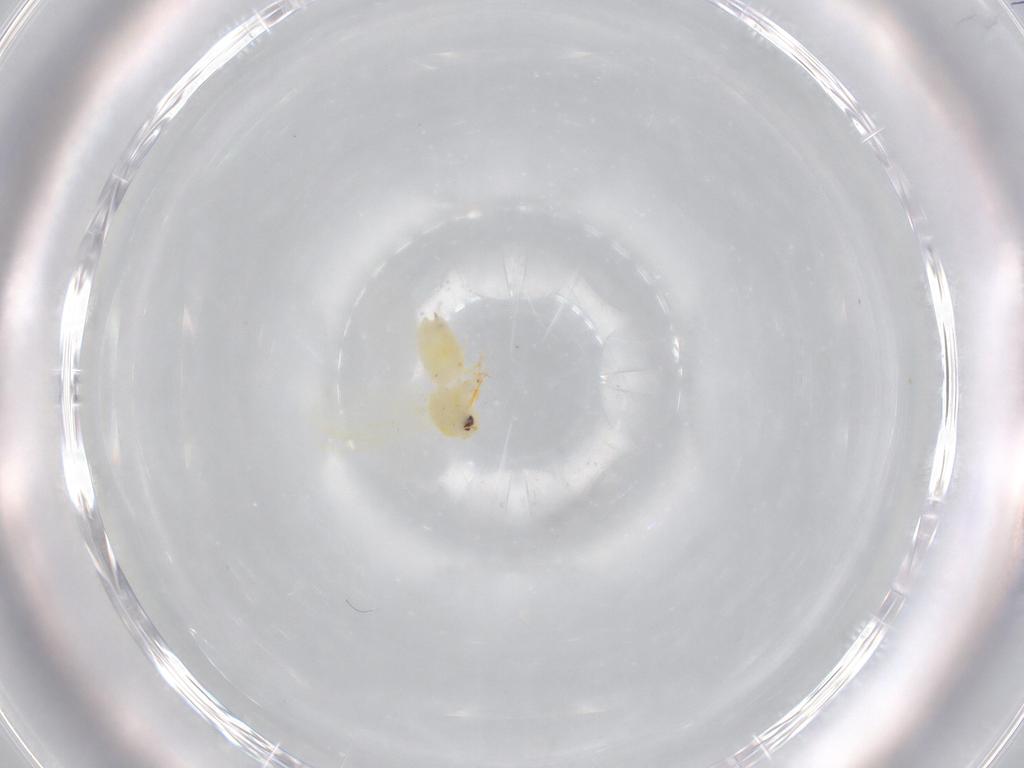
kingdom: Animalia
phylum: Arthropoda
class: Insecta
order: Hemiptera
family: Aleyrodidae
